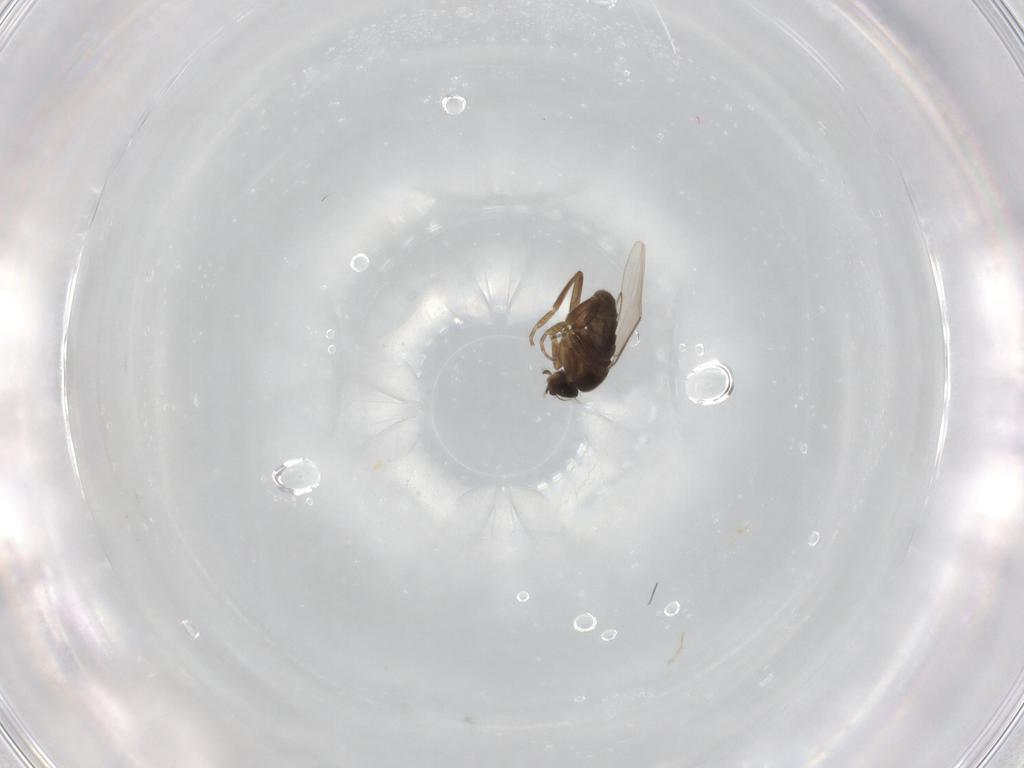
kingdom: Animalia
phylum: Arthropoda
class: Insecta
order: Diptera
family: Phoridae
